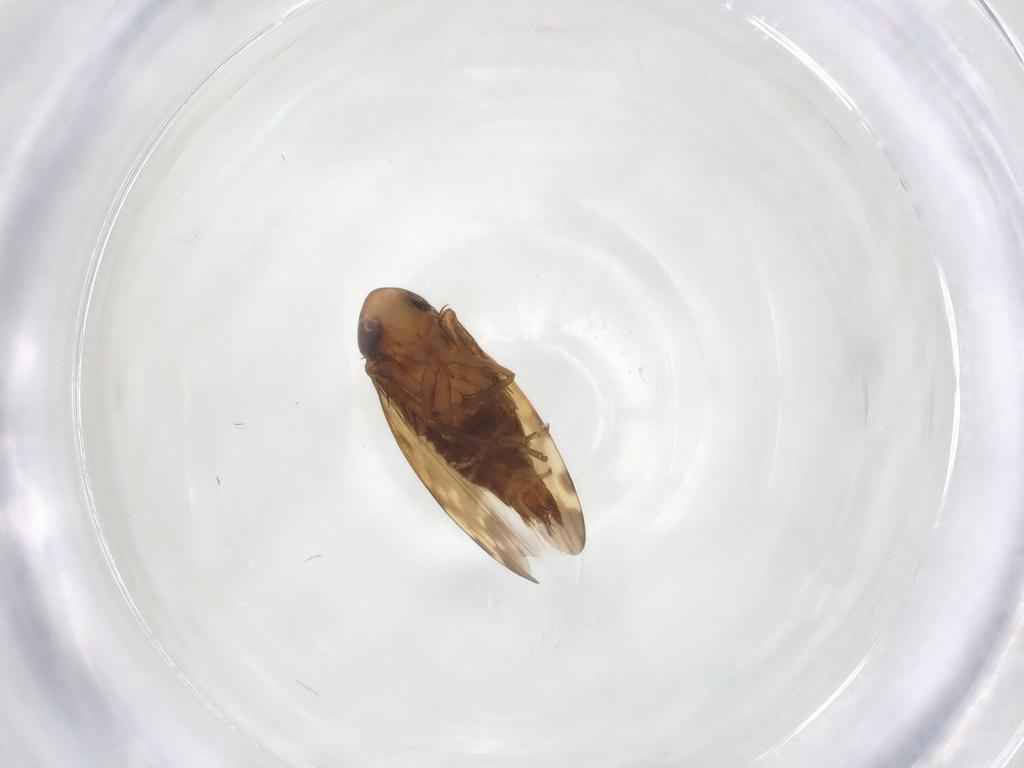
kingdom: Animalia
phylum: Arthropoda
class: Insecta
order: Hemiptera
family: Cicadellidae
